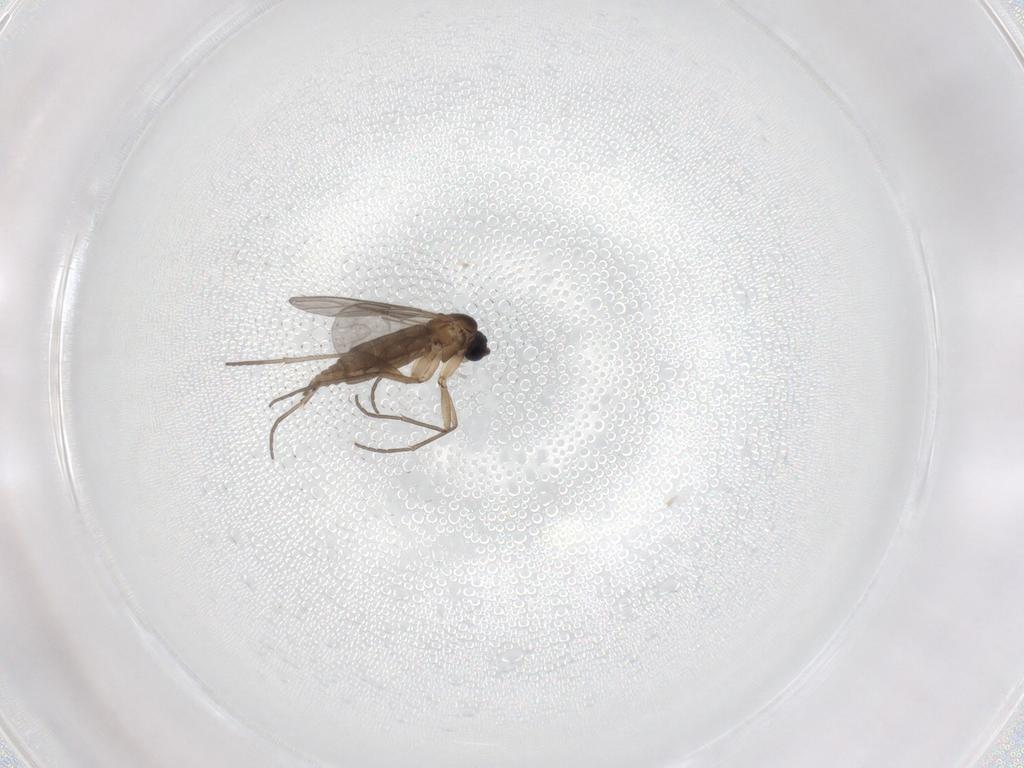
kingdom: Animalia
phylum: Arthropoda
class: Insecta
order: Diptera
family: Sciaridae
